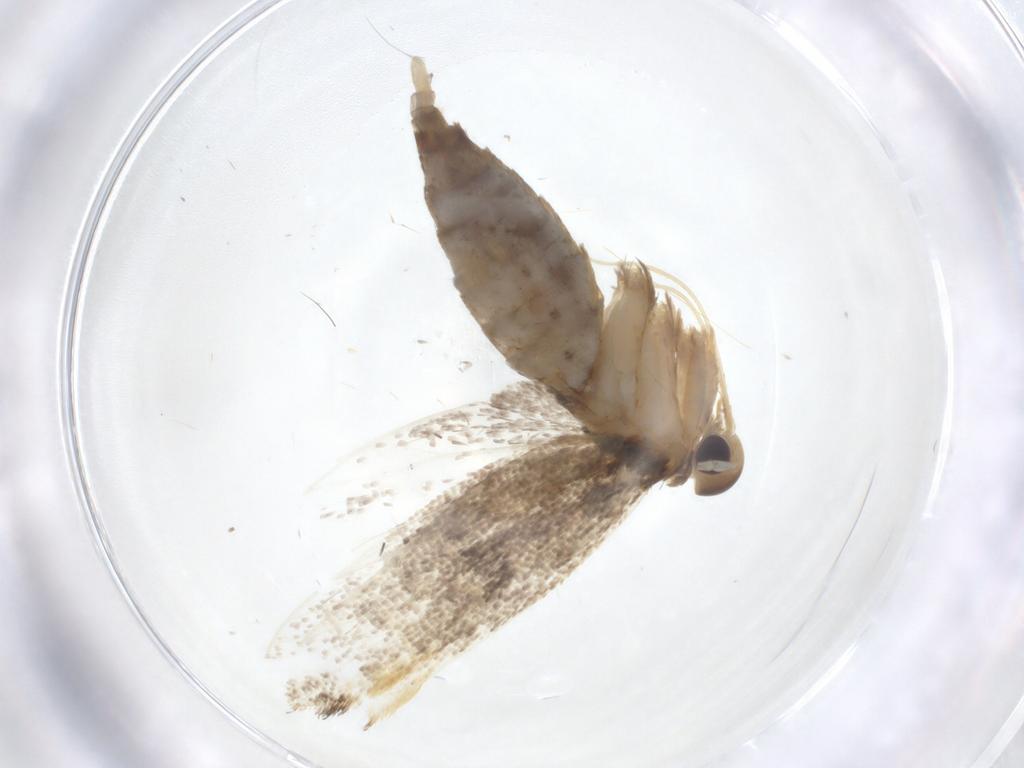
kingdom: Animalia
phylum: Arthropoda
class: Insecta
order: Lepidoptera
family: Lecithoceridae
